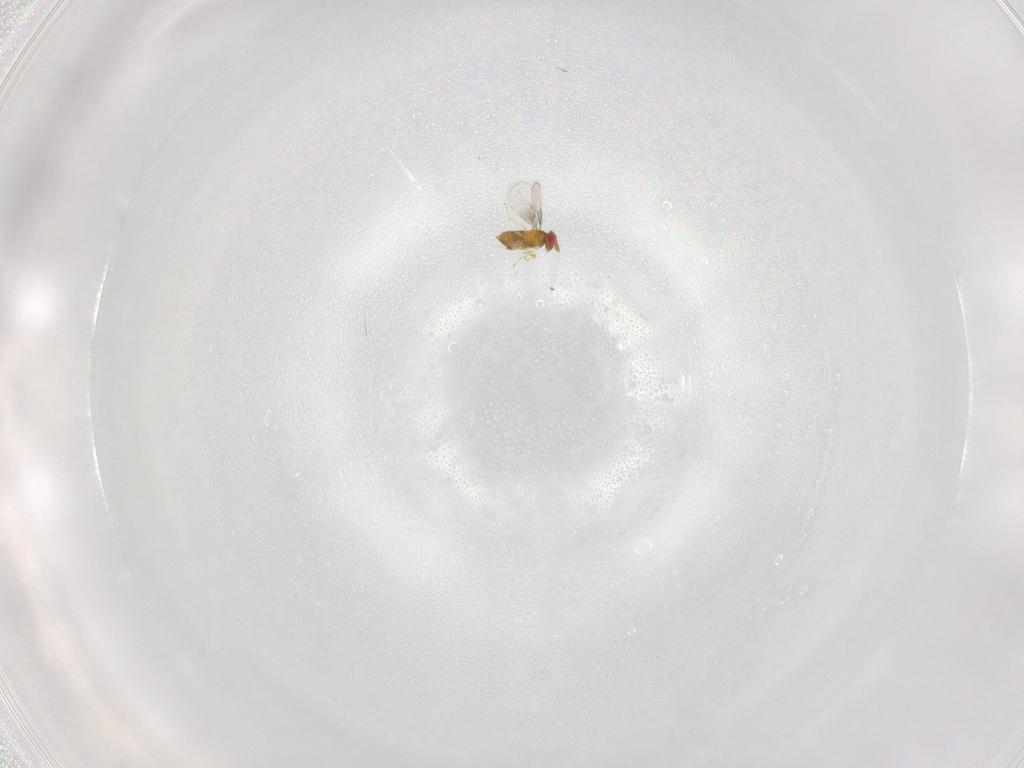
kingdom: Animalia
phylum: Arthropoda
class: Insecta
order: Hymenoptera
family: Trichogrammatidae
